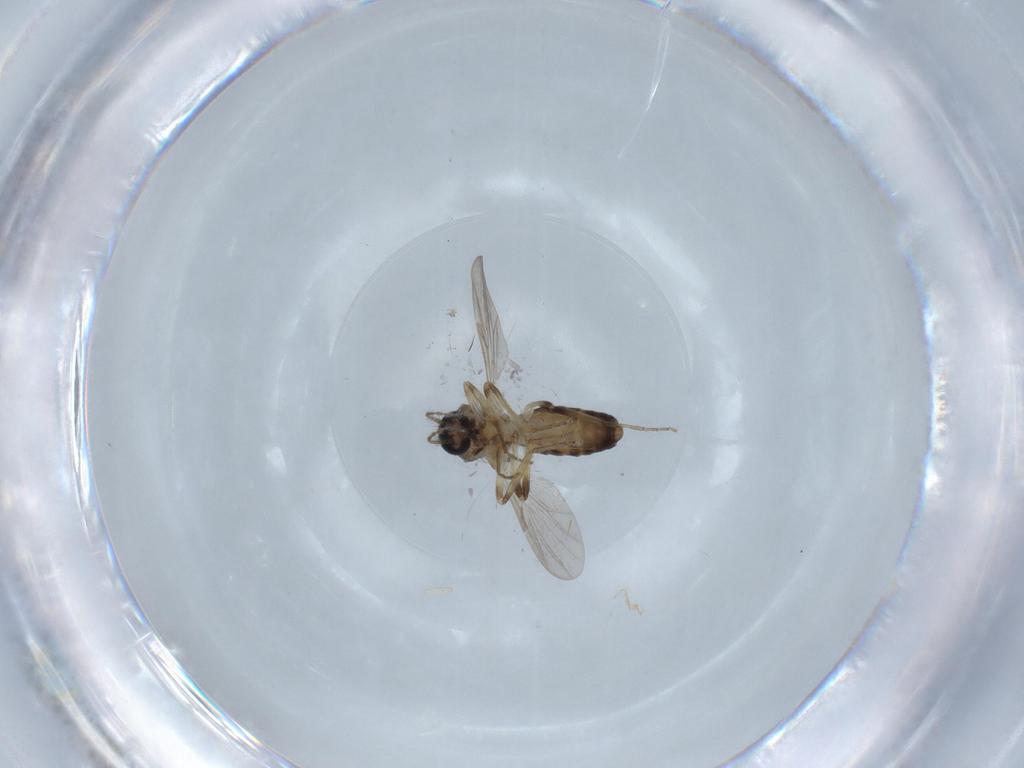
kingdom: Animalia
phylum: Arthropoda
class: Insecta
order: Diptera
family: Ceratopogonidae
